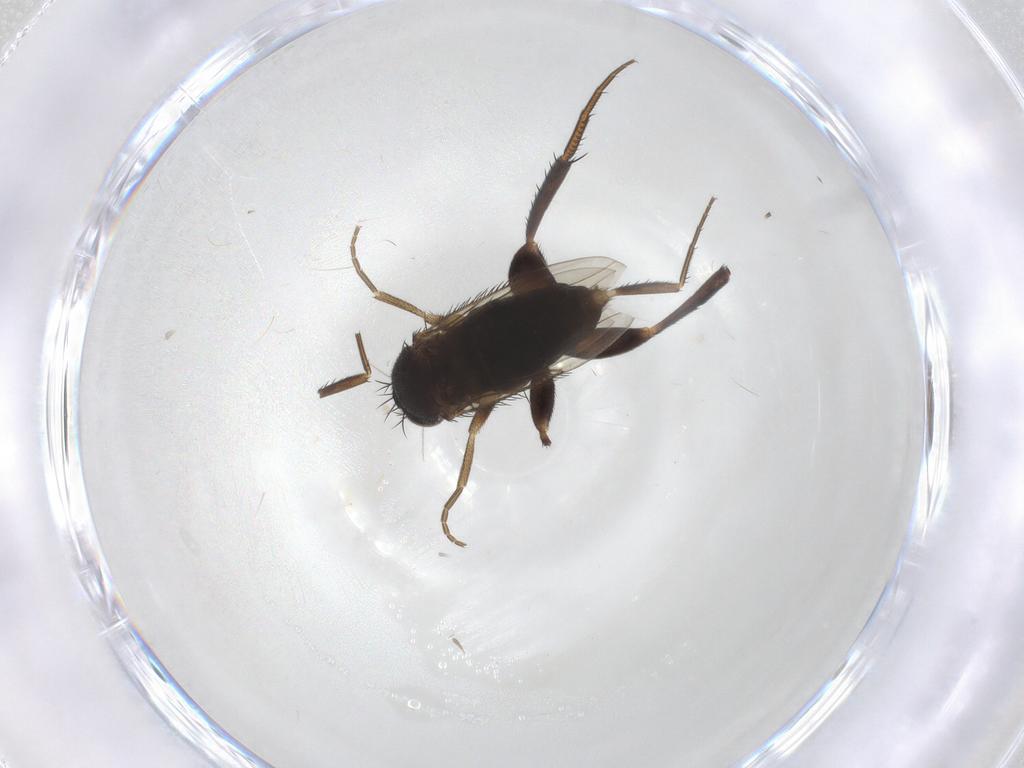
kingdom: Animalia
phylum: Arthropoda
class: Insecta
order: Diptera
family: Phoridae
